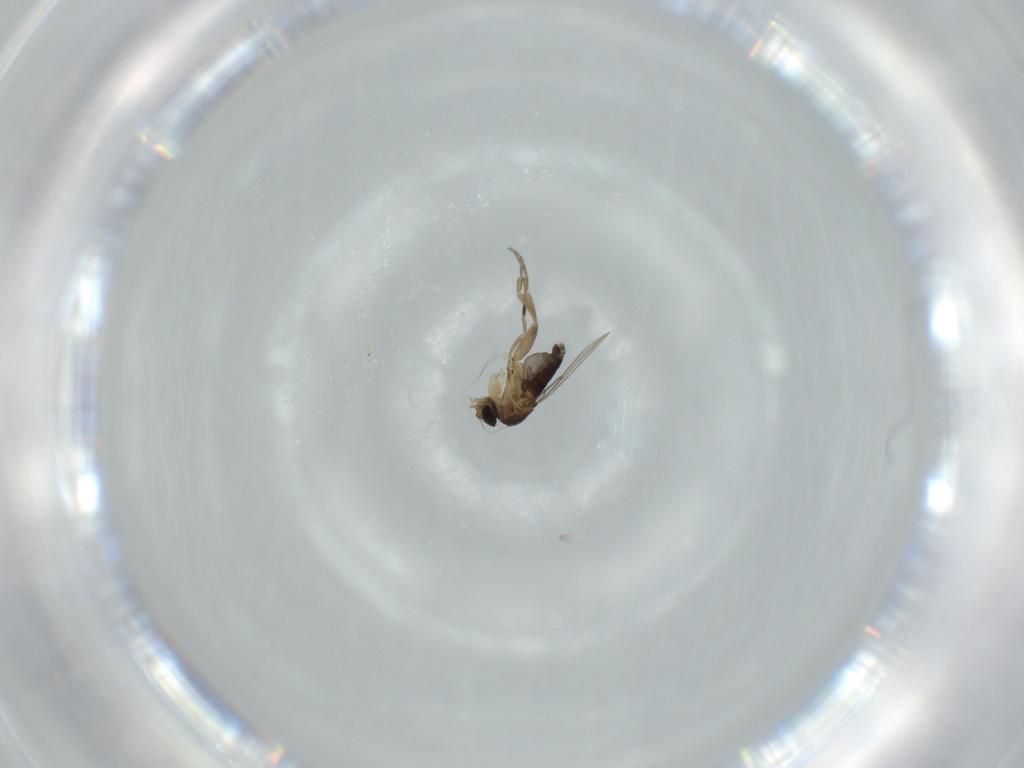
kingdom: Animalia
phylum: Arthropoda
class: Insecta
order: Diptera
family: Phoridae
